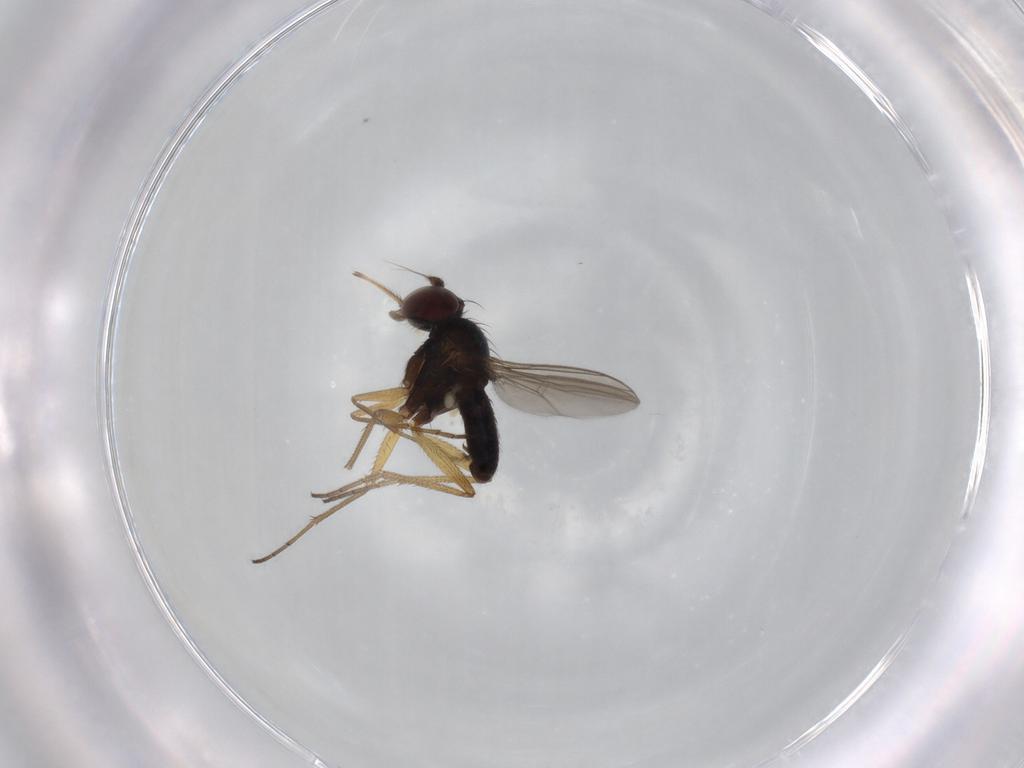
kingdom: Animalia
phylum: Arthropoda
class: Insecta
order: Diptera
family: Dolichopodidae
